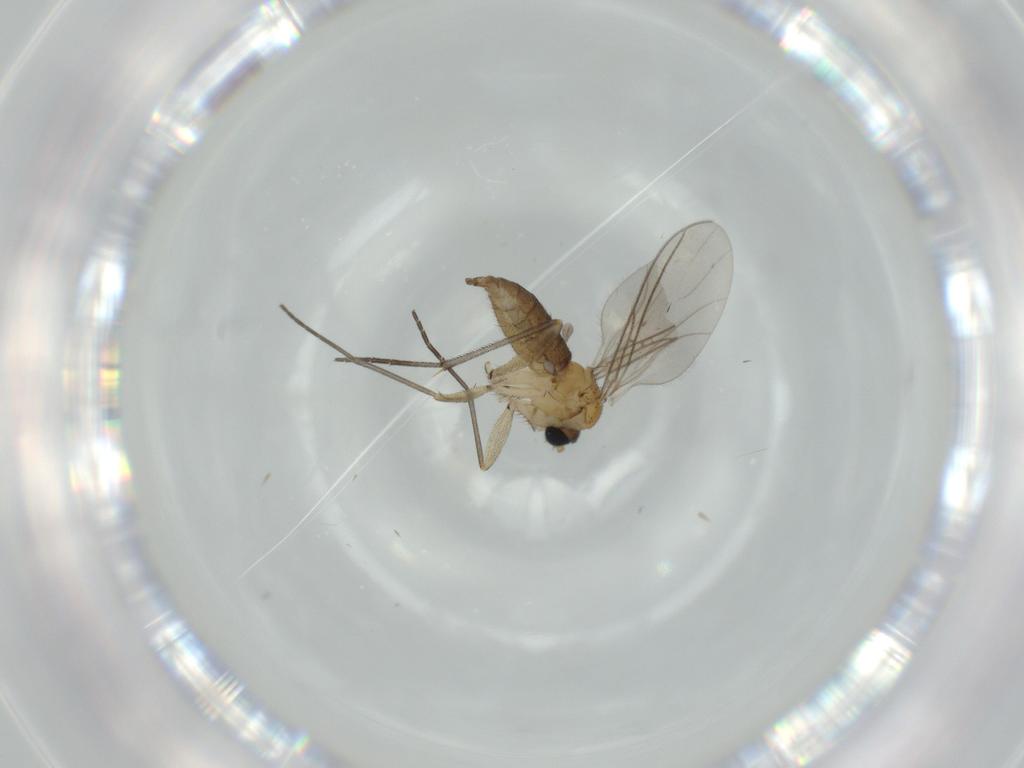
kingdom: Animalia
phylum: Arthropoda
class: Insecta
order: Diptera
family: Sciaridae
